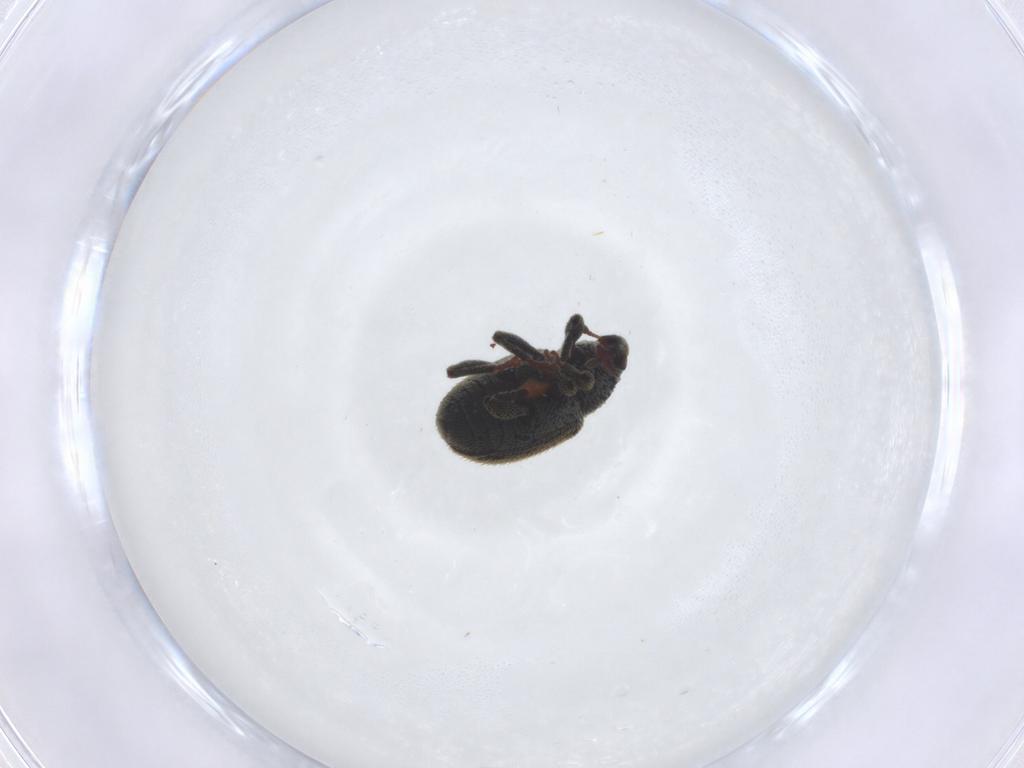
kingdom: Animalia
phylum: Arthropoda
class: Insecta
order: Coleoptera
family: Curculionidae
